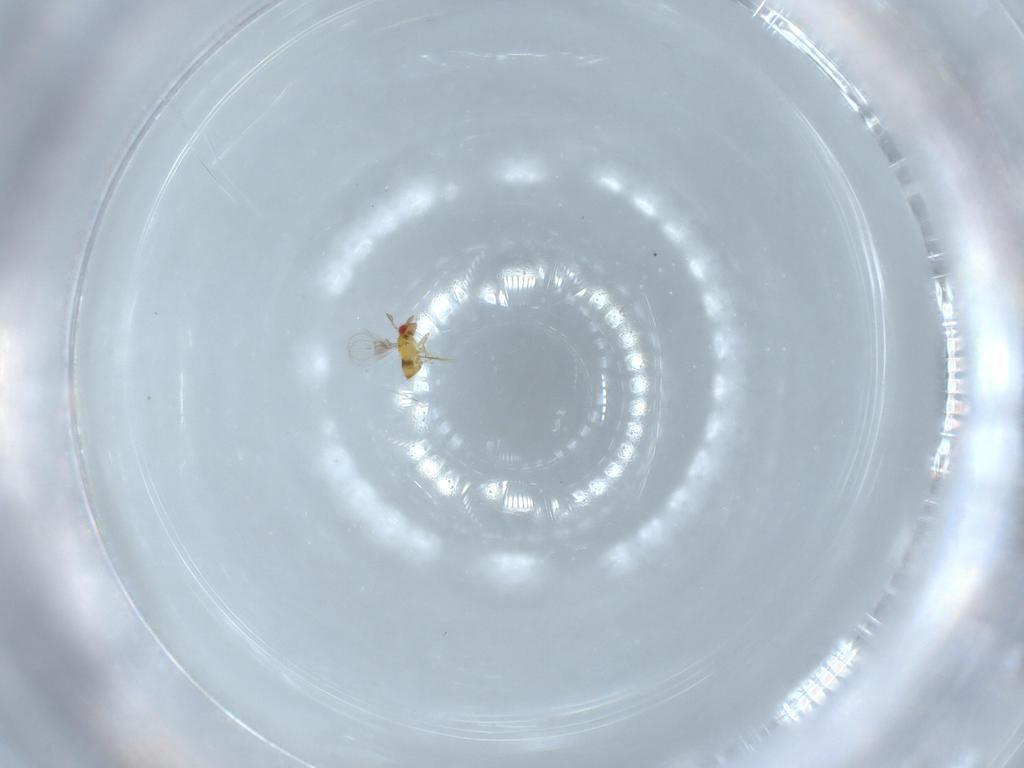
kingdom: Animalia
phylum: Arthropoda
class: Insecta
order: Hymenoptera
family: Trichogrammatidae
